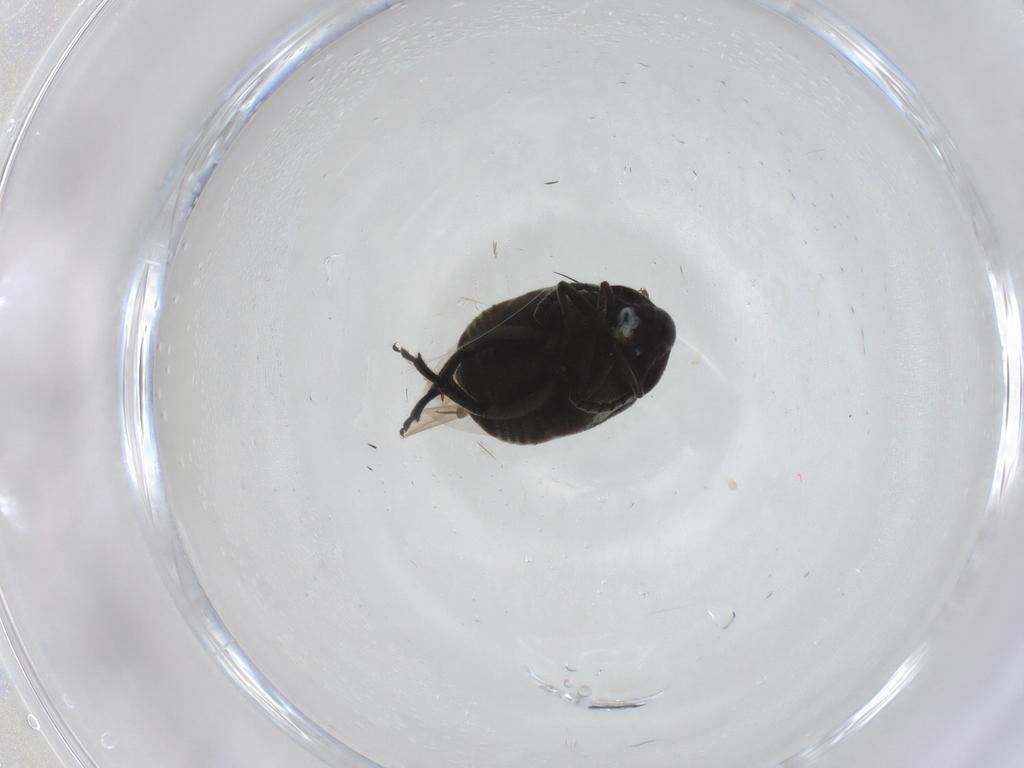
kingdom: Animalia
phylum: Arthropoda
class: Insecta
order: Coleoptera
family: Chrysomelidae
